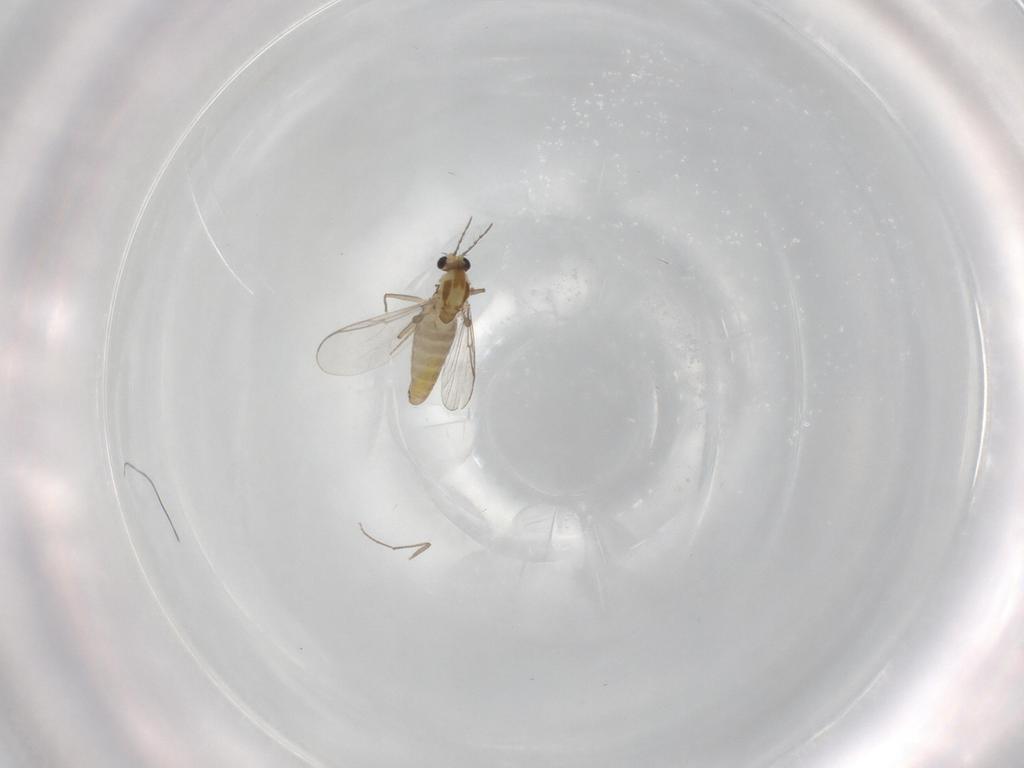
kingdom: Animalia
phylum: Arthropoda
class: Insecta
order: Diptera
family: Chironomidae
